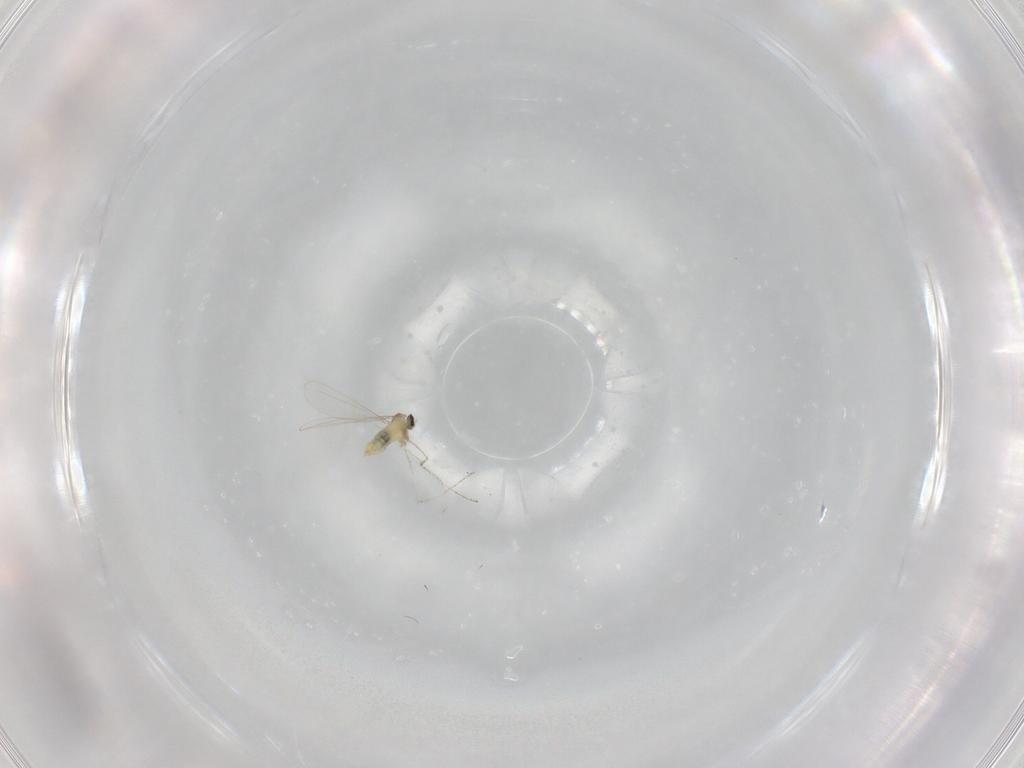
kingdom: Animalia
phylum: Arthropoda
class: Insecta
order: Diptera
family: Cecidomyiidae
